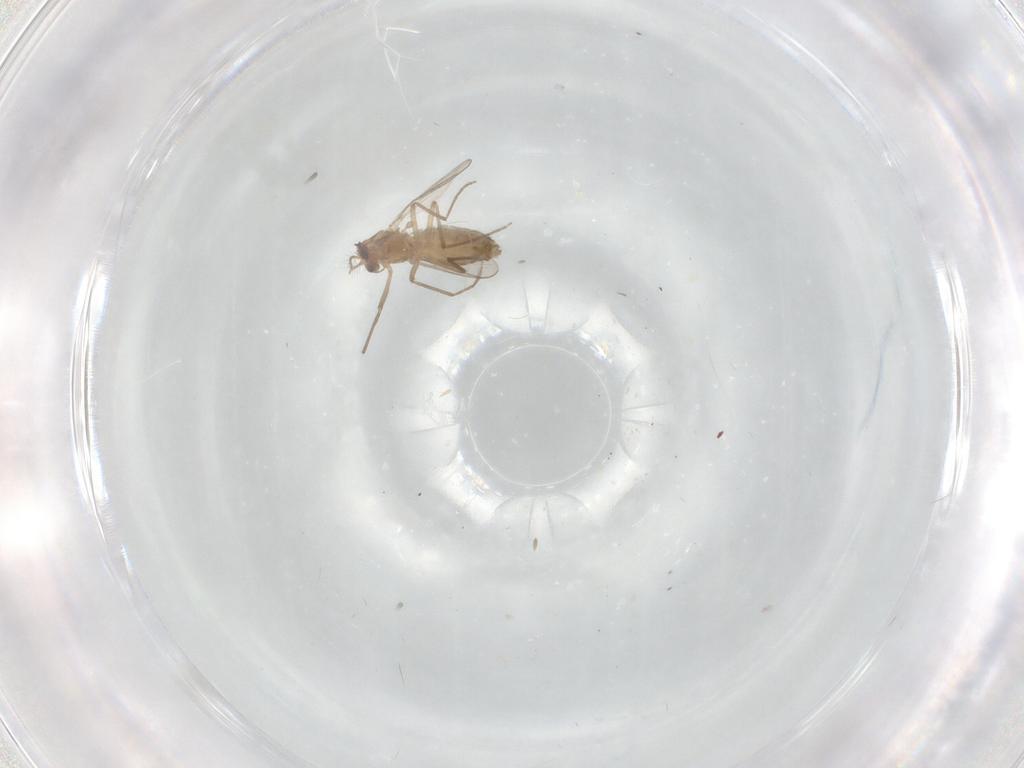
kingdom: Animalia
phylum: Arthropoda
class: Insecta
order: Diptera
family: Chironomidae
